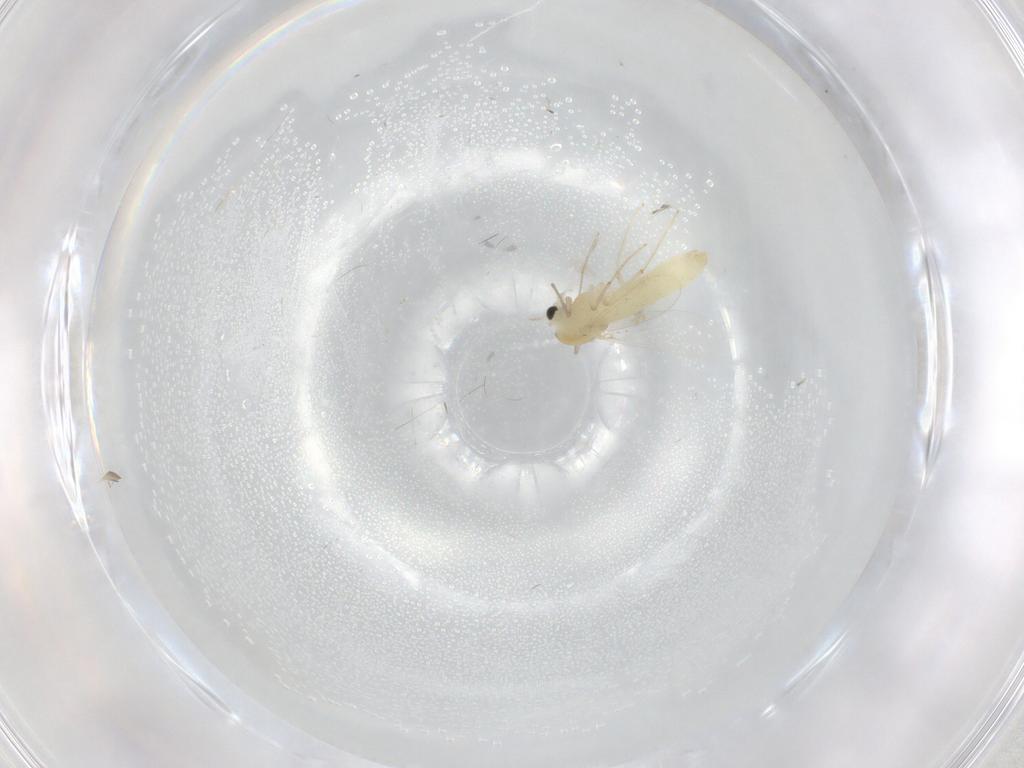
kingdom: Animalia
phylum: Arthropoda
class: Insecta
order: Diptera
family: Chironomidae
